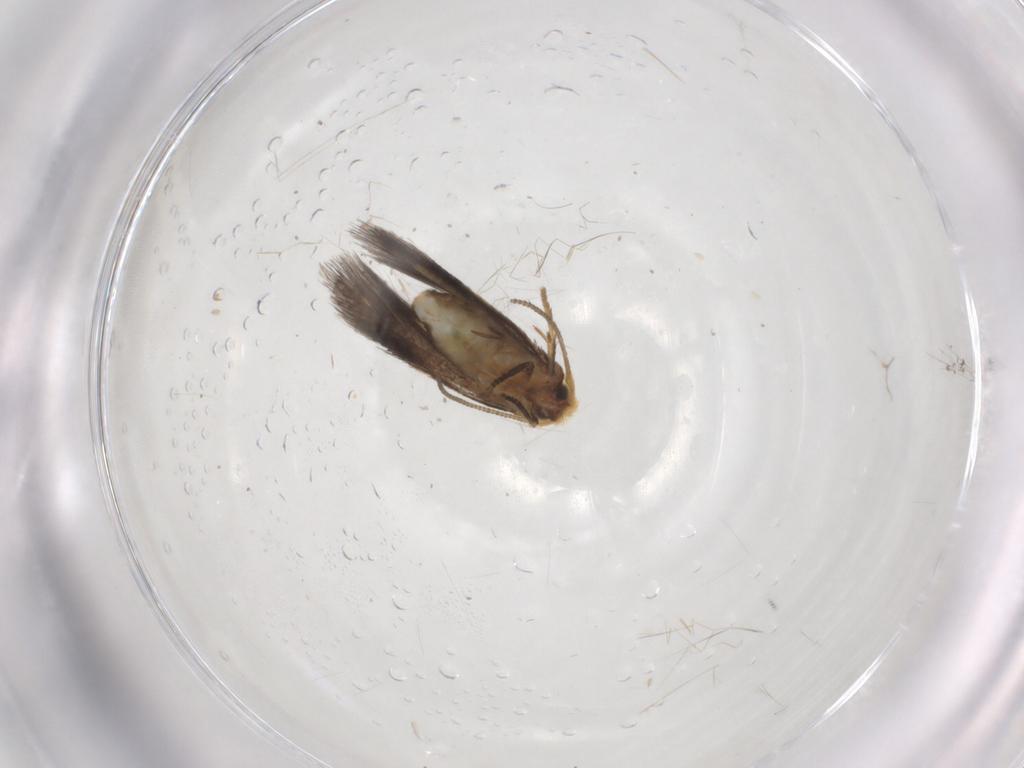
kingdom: Animalia
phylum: Arthropoda
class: Insecta
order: Lepidoptera
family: Nepticulidae
